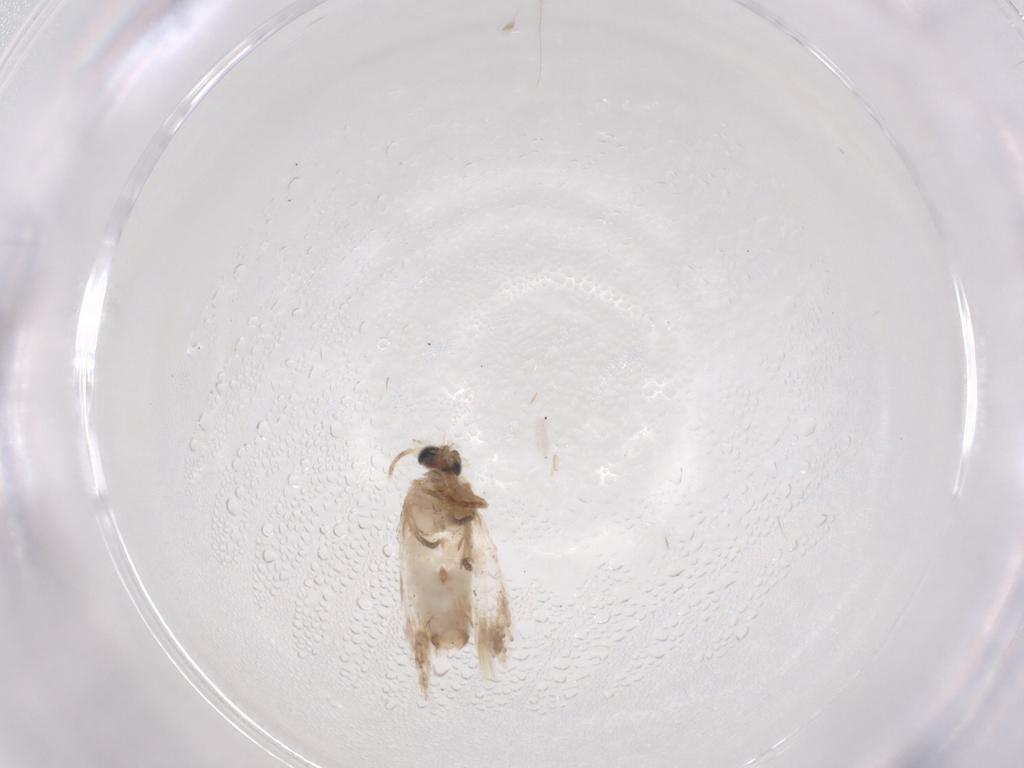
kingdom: Animalia
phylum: Arthropoda
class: Insecta
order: Lepidoptera
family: Nepticulidae
